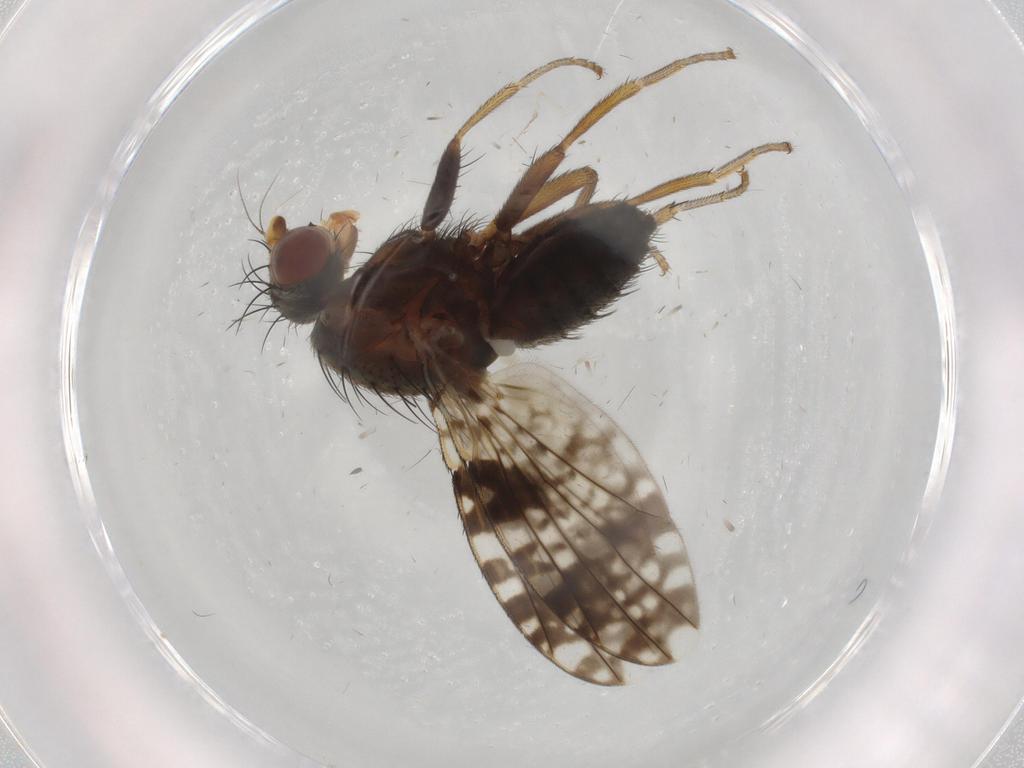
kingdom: Animalia
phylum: Arthropoda
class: Insecta
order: Diptera
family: Tephritidae
